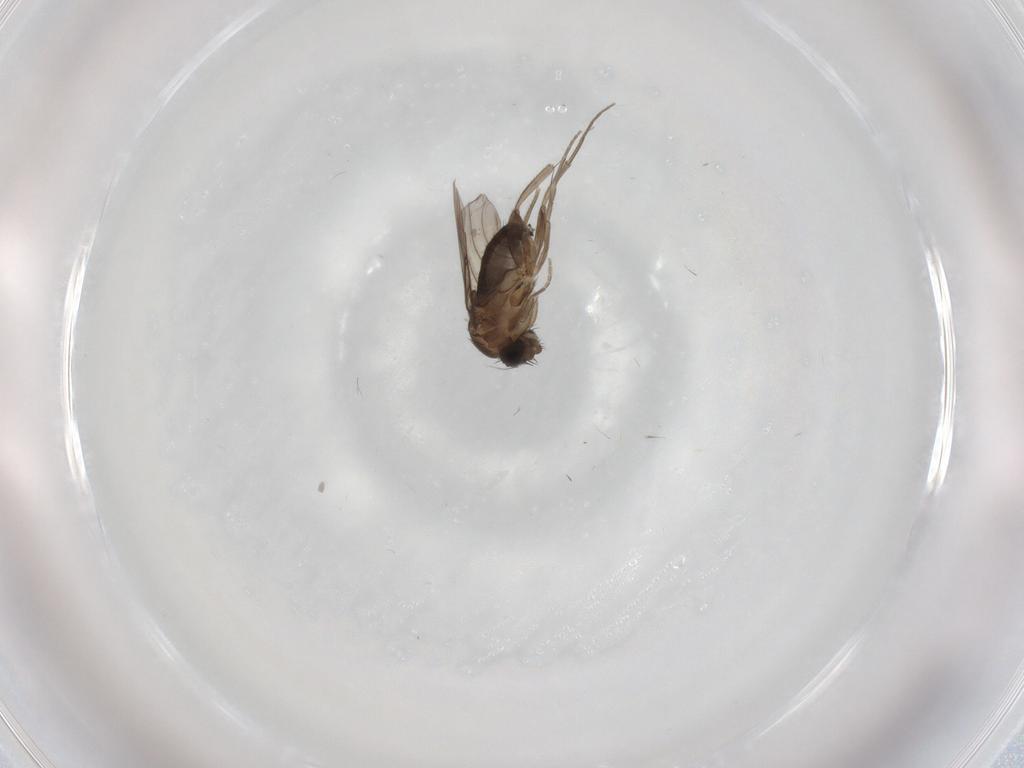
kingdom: Animalia
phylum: Arthropoda
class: Insecta
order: Diptera
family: Phoridae
